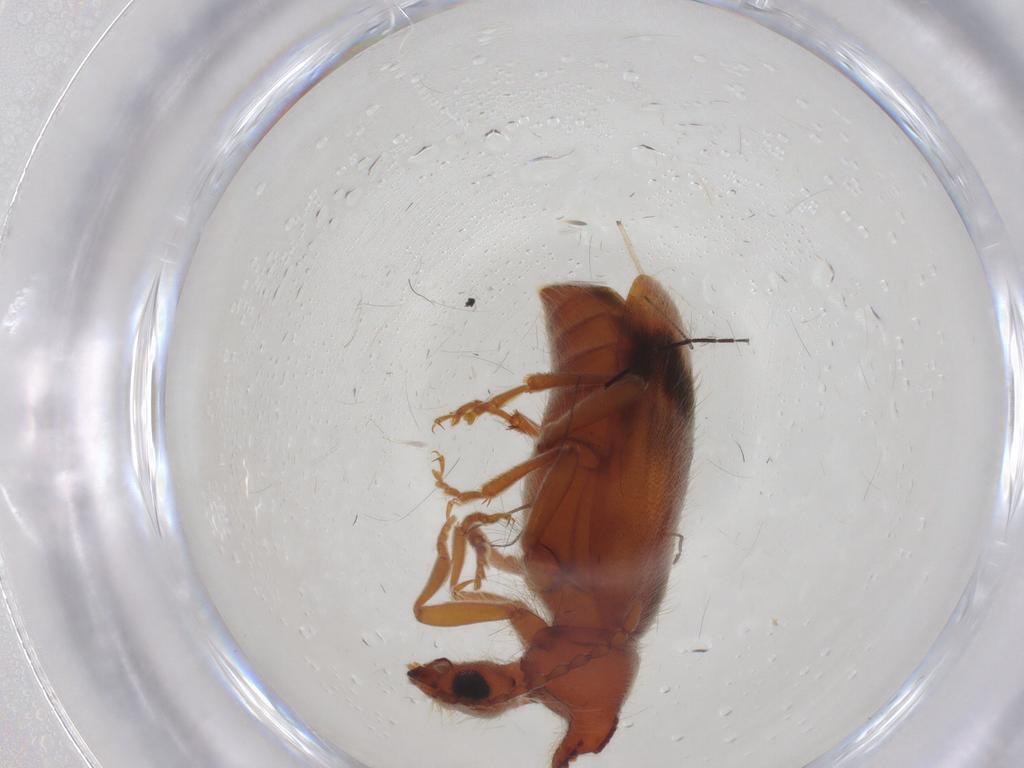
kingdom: Animalia
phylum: Arthropoda
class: Insecta
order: Coleoptera
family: Anthicidae
